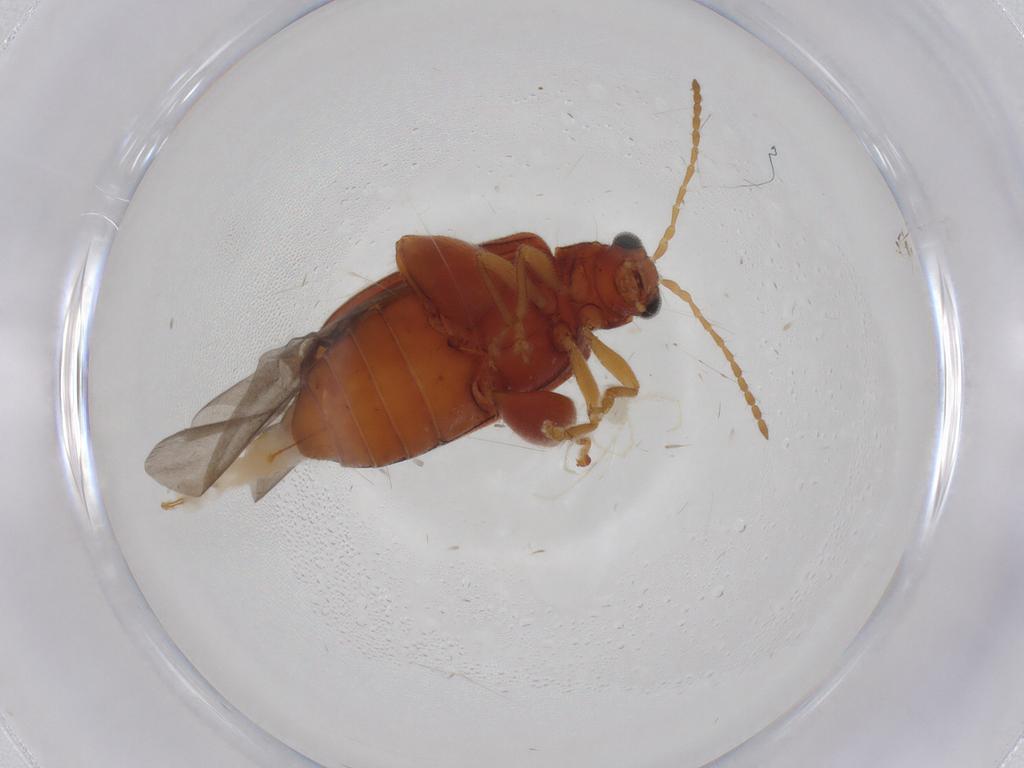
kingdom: Animalia
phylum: Arthropoda
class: Insecta
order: Coleoptera
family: Chrysomelidae
